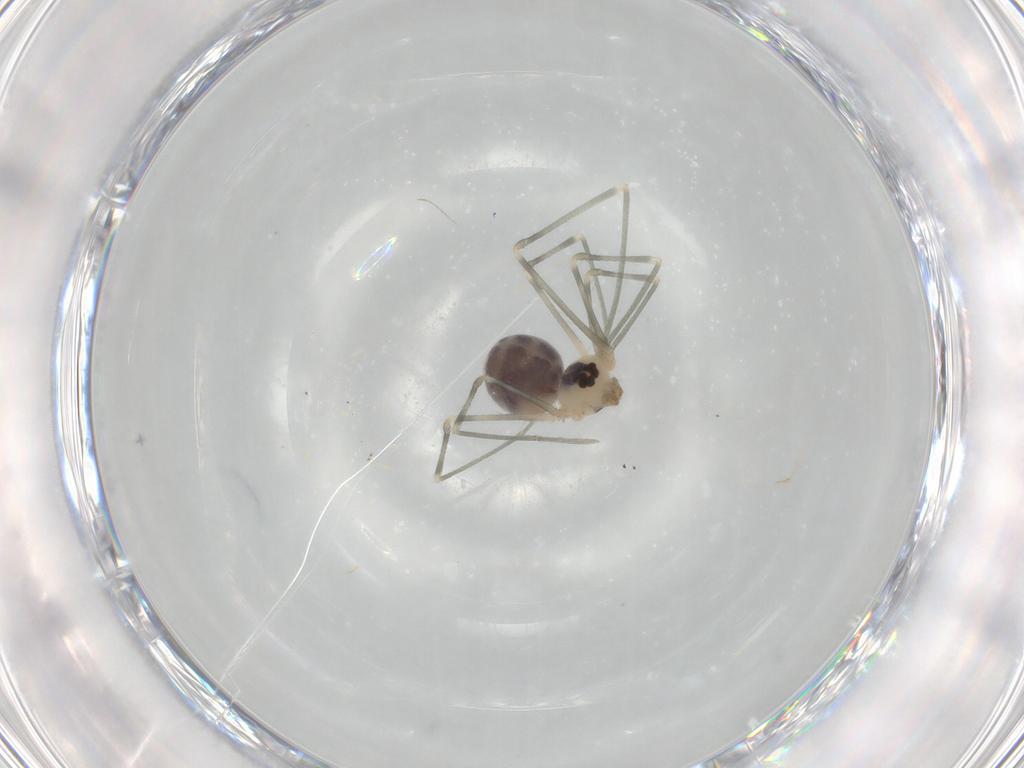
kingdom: Animalia
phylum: Arthropoda
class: Arachnida
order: Araneae
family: Pholcidae
